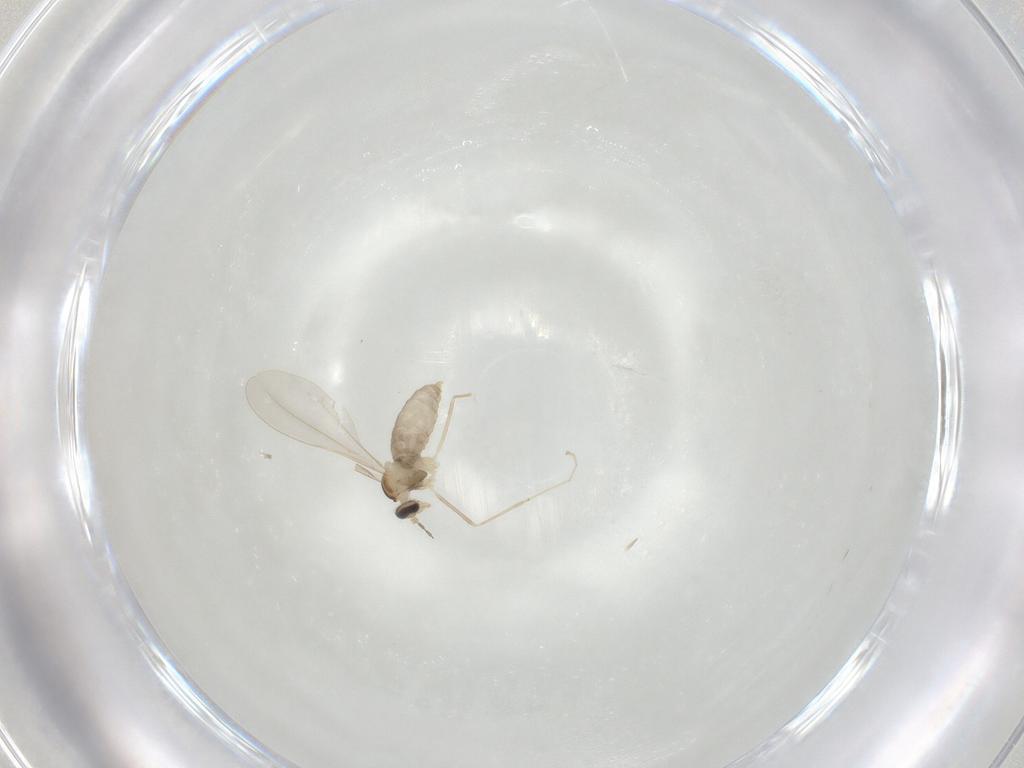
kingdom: Animalia
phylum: Arthropoda
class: Insecta
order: Diptera
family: Cecidomyiidae
